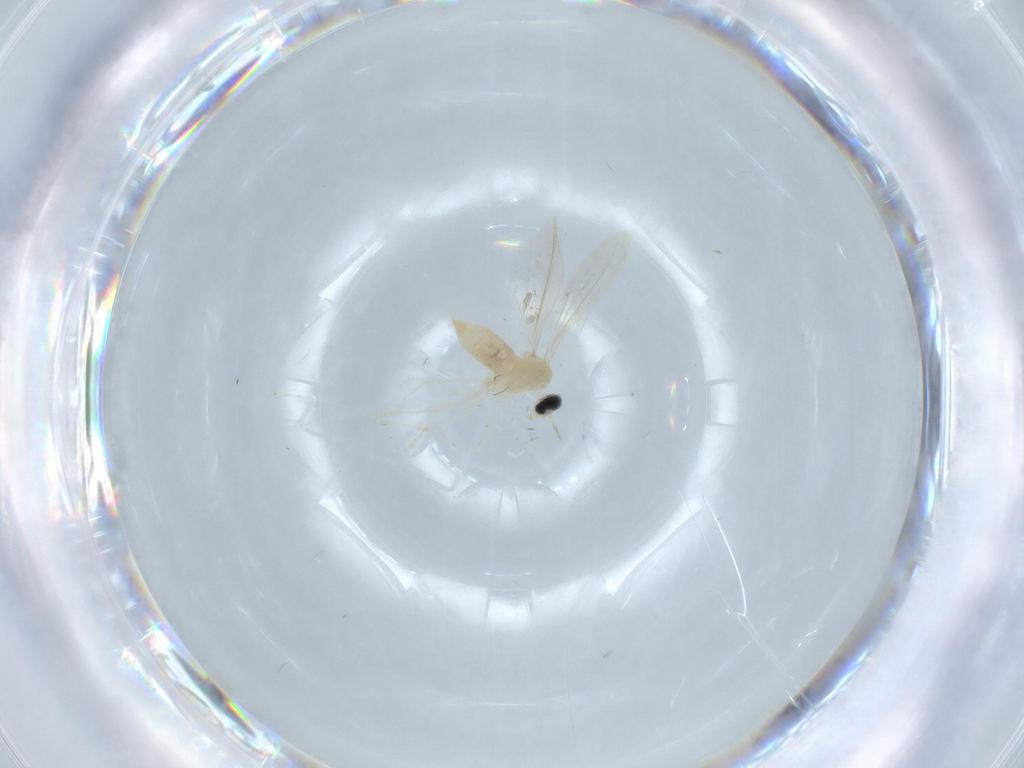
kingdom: Animalia
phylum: Arthropoda
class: Insecta
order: Diptera
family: Cecidomyiidae
